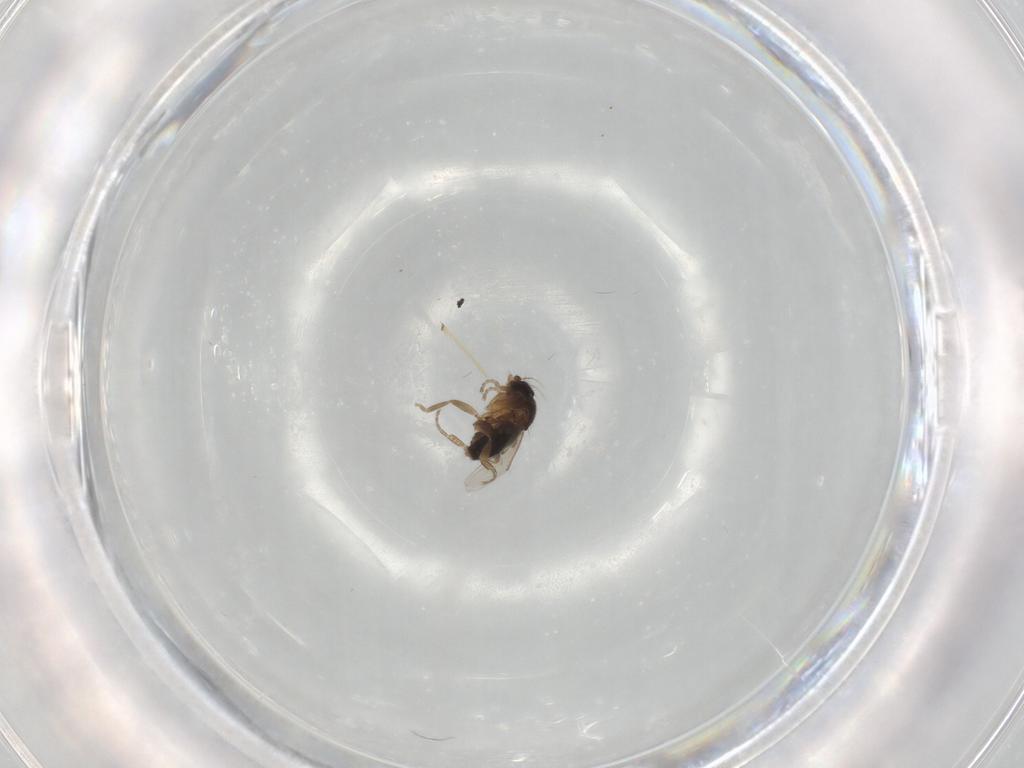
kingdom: Animalia
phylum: Arthropoda
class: Insecta
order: Diptera
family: Phoridae
